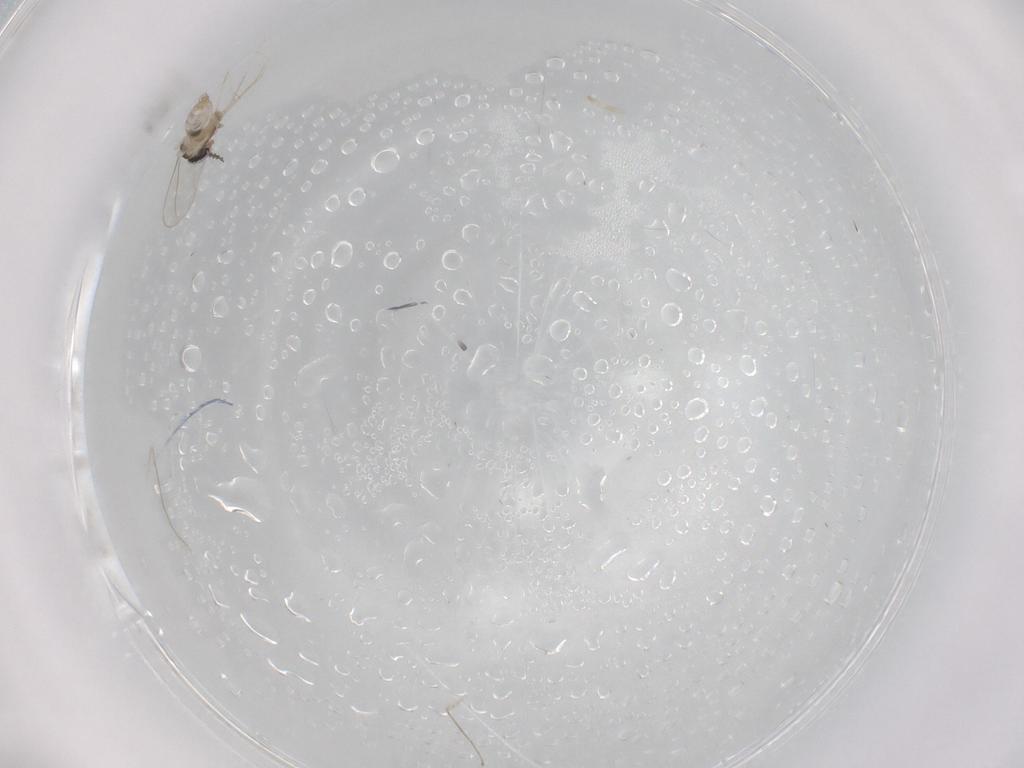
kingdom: Animalia
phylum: Arthropoda
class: Insecta
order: Diptera
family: Cecidomyiidae
